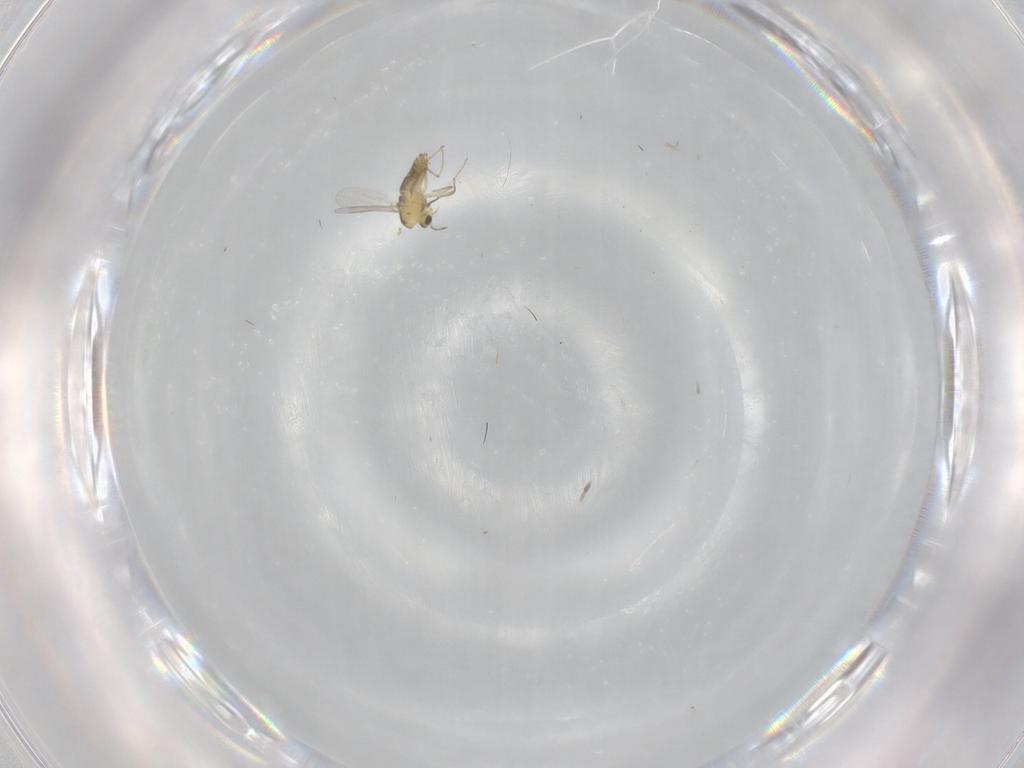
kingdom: Animalia
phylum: Arthropoda
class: Insecta
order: Diptera
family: Chironomidae
